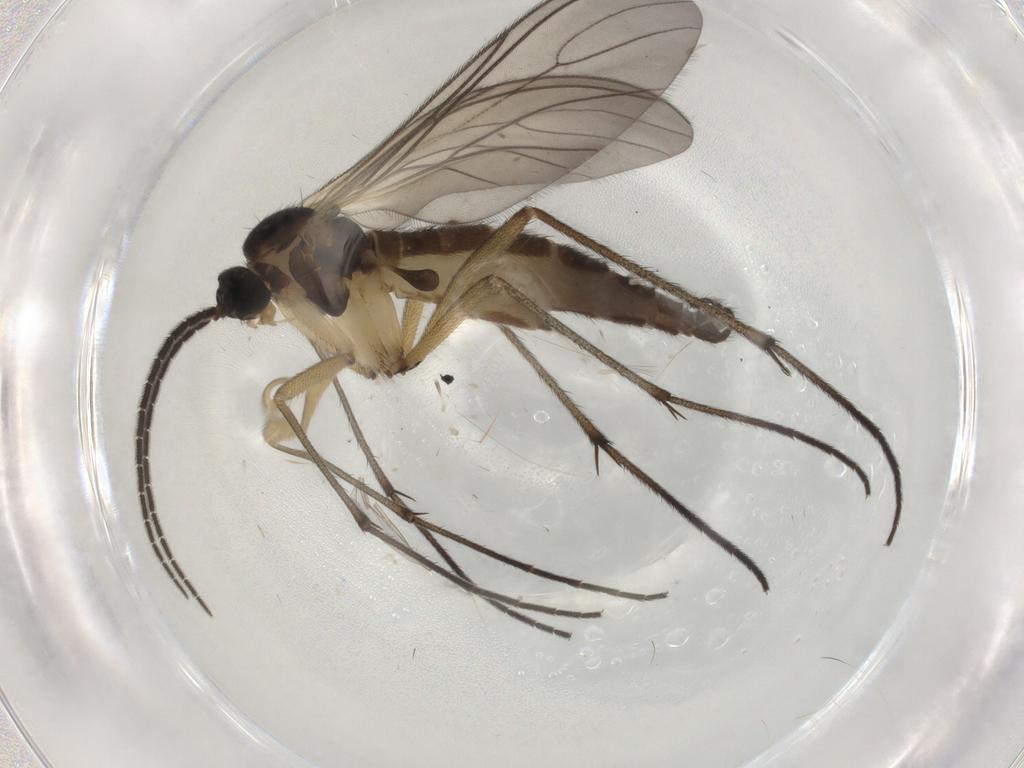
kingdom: Animalia
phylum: Arthropoda
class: Insecta
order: Diptera
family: Sciaridae
